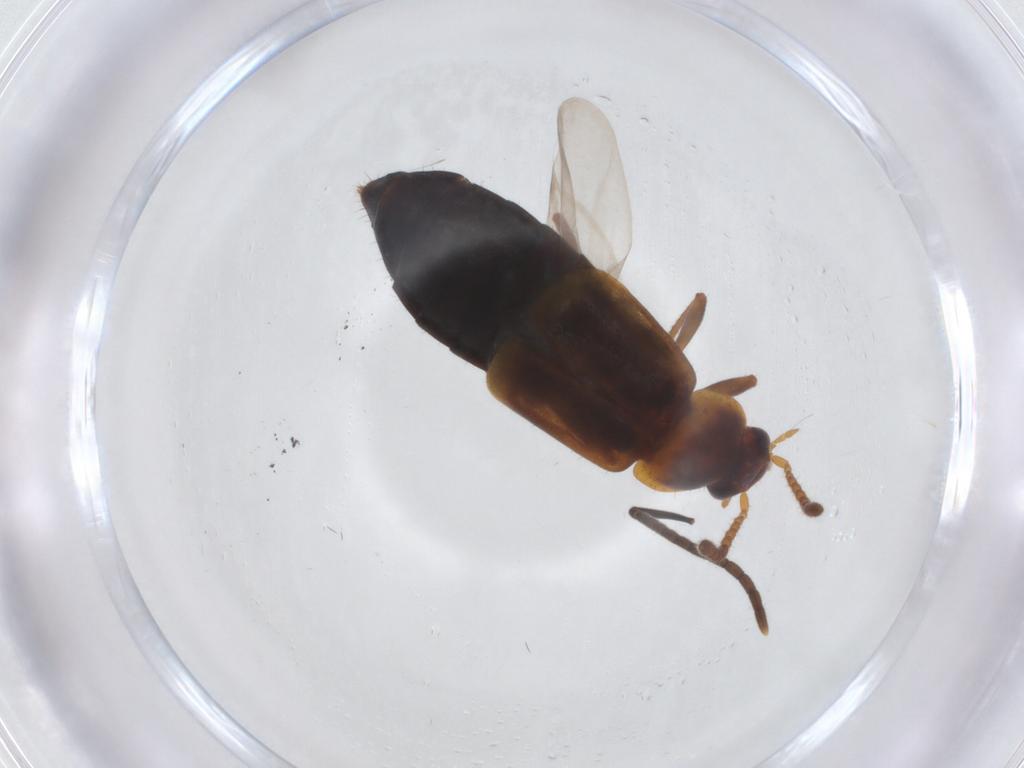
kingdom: Animalia
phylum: Arthropoda
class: Insecta
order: Coleoptera
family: Staphylinidae
